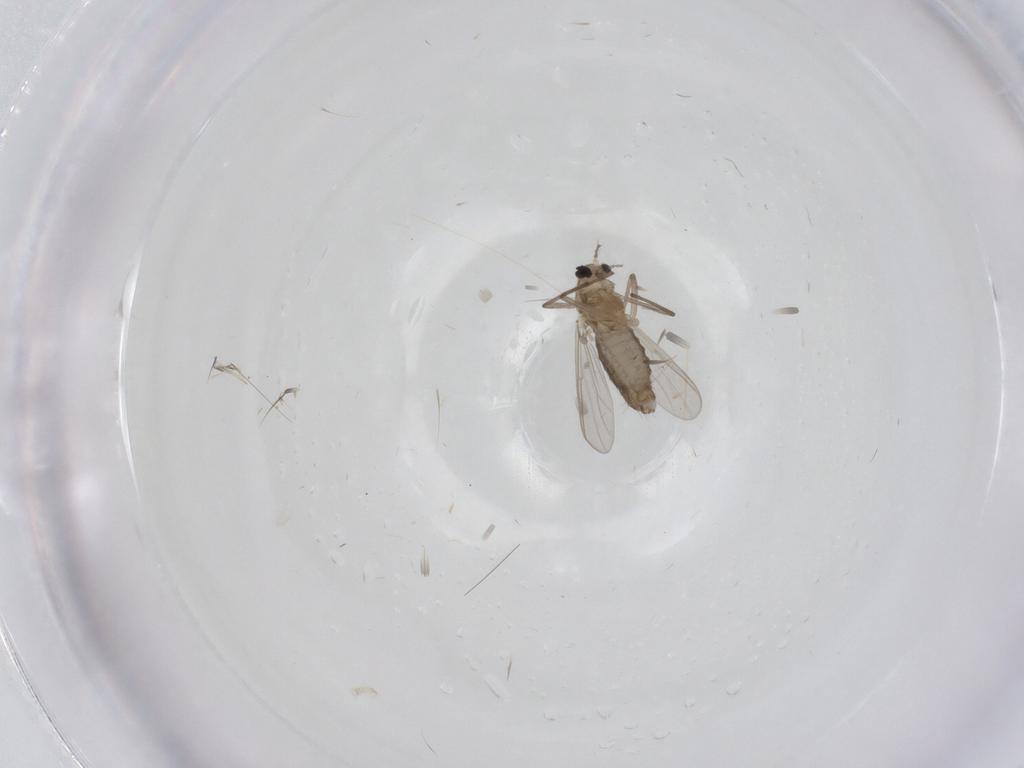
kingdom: Animalia
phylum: Arthropoda
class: Insecta
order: Diptera
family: Chironomidae
